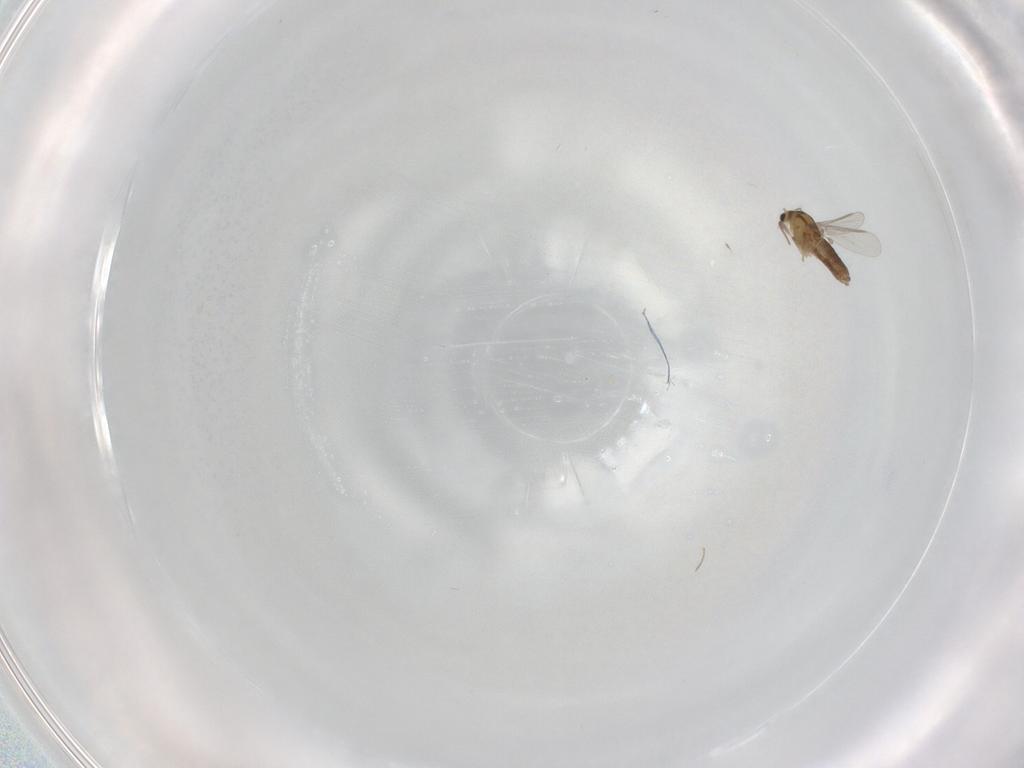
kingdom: Animalia
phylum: Arthropoda
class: Insecta
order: Diptera
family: Chironomidae
